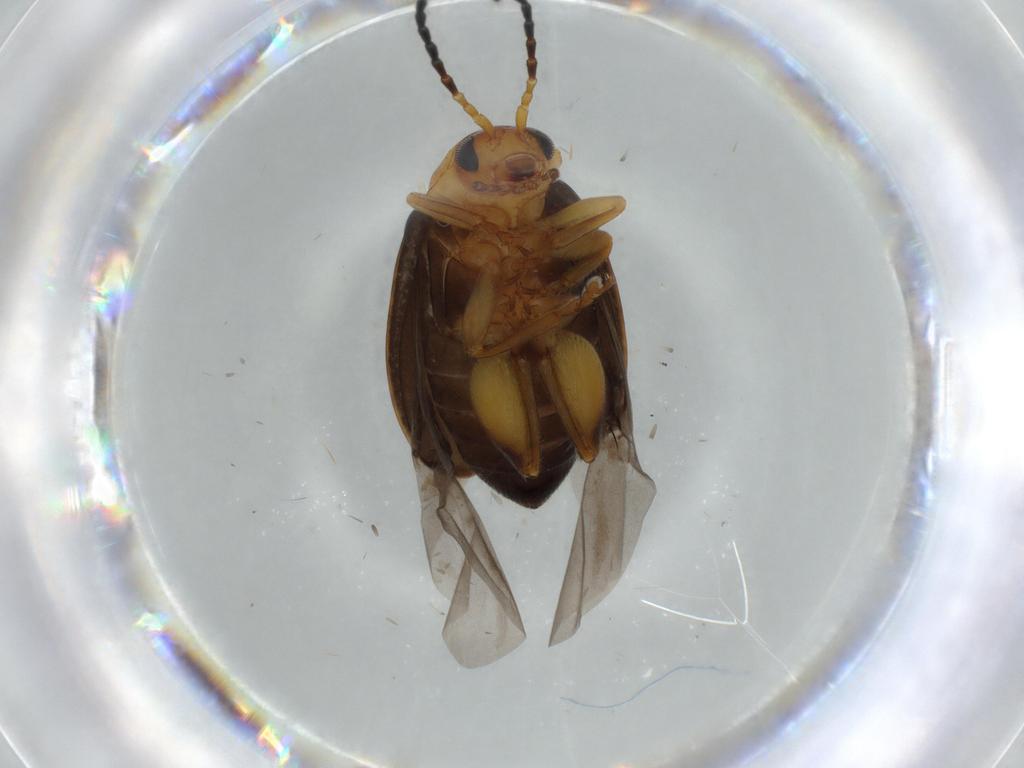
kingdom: Animalia
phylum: Arthropoda
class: Insecta
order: Coleoptera
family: Chrysomelidae
